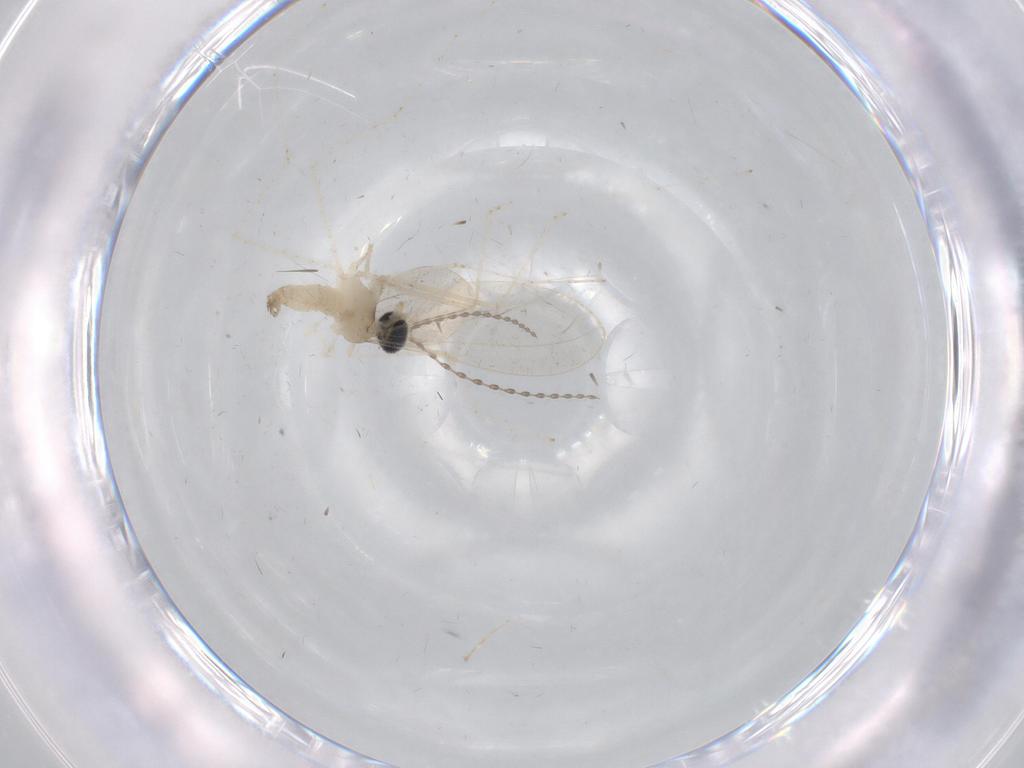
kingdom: Animalia
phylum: Arthropoda
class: Insecta
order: Diptera
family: Cecidomyiidae
